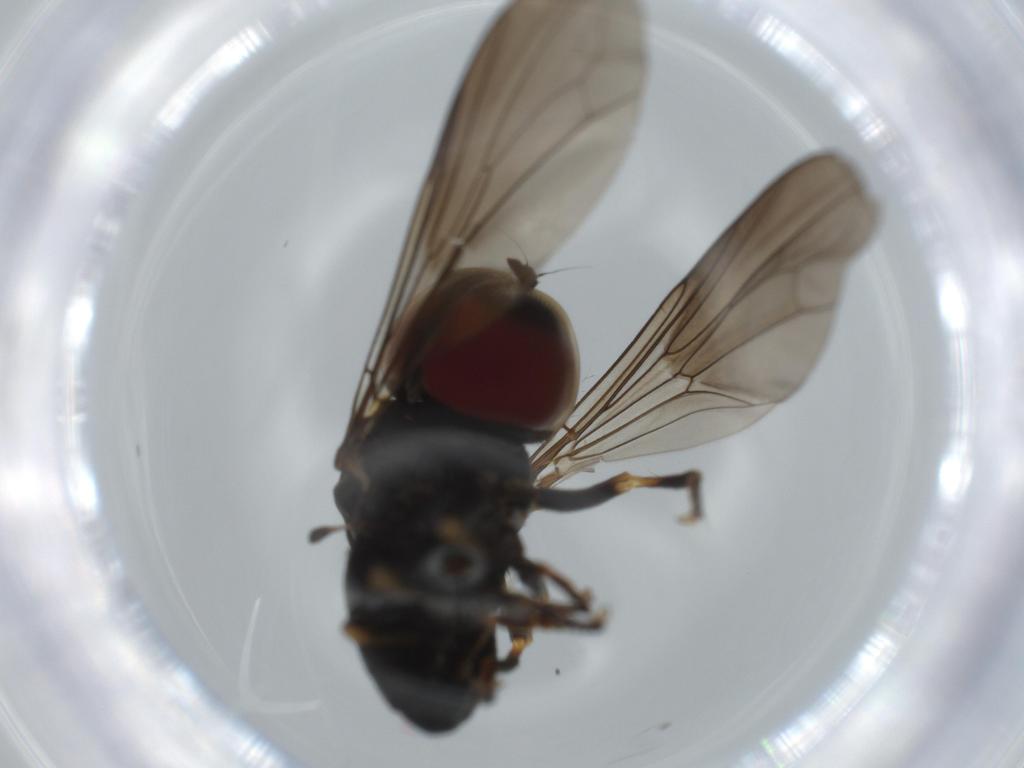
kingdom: Animalia
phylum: Arthropoda
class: Insecta
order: Diptera
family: Pipunculidae
